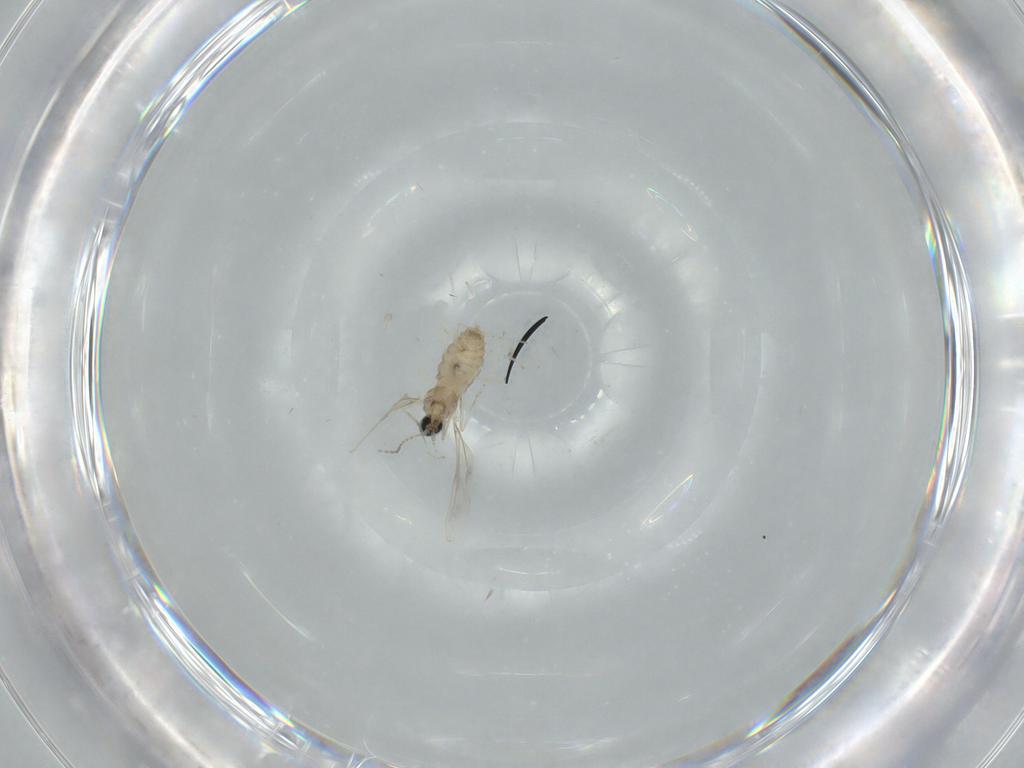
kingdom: Animalia
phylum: Arthropoda
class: Insecta
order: Diptera
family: Cecidomyiidae
